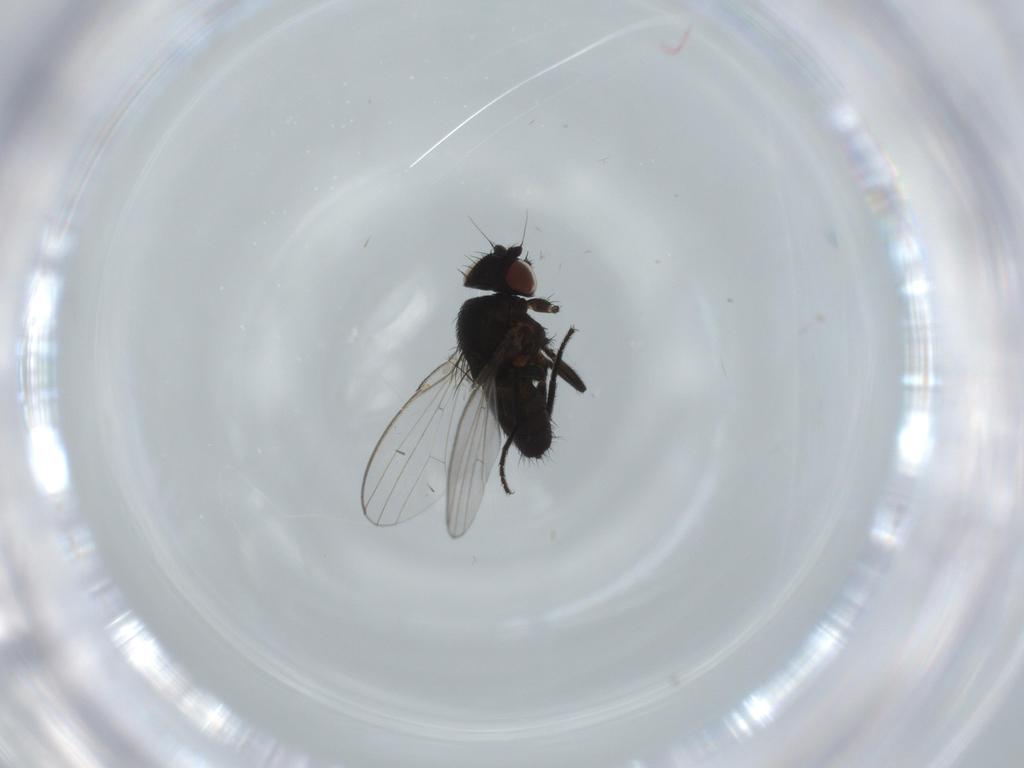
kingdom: Animalia
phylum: Arthropoda
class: Insecta
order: Diptera
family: Milichiidae
